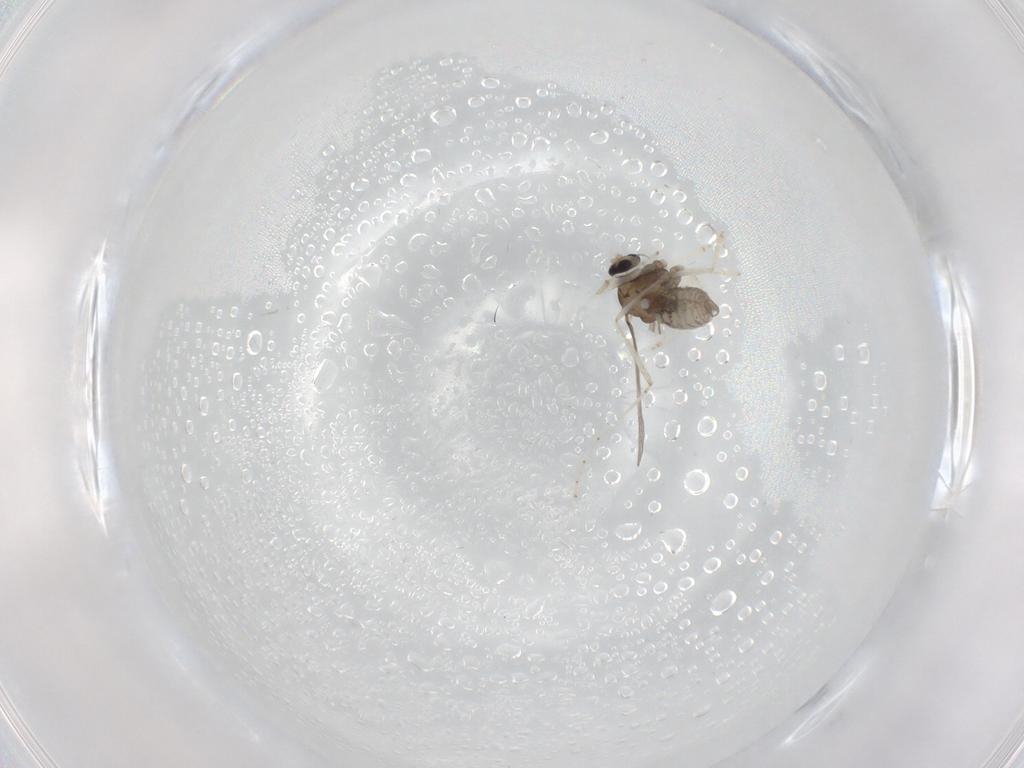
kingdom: Animalia
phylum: Arthropoda
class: Insecta
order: Diptera
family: Cecidomyiidae
